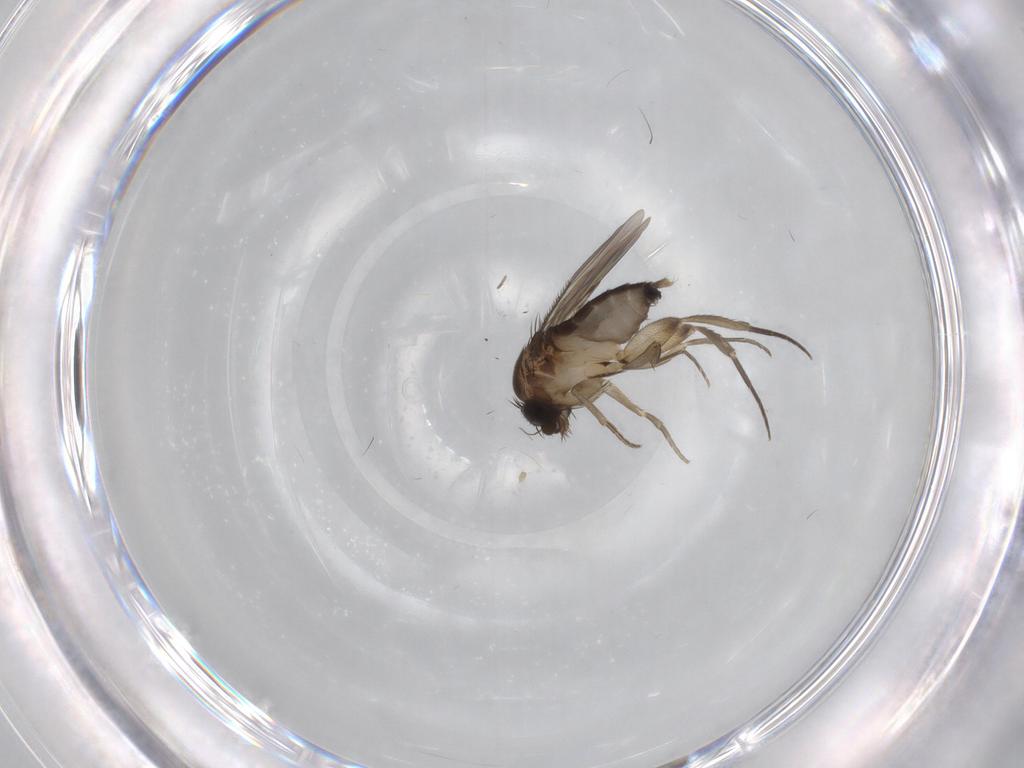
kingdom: Animalia
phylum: Arthropoda
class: Insecta
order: Diptera
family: Phoridae
